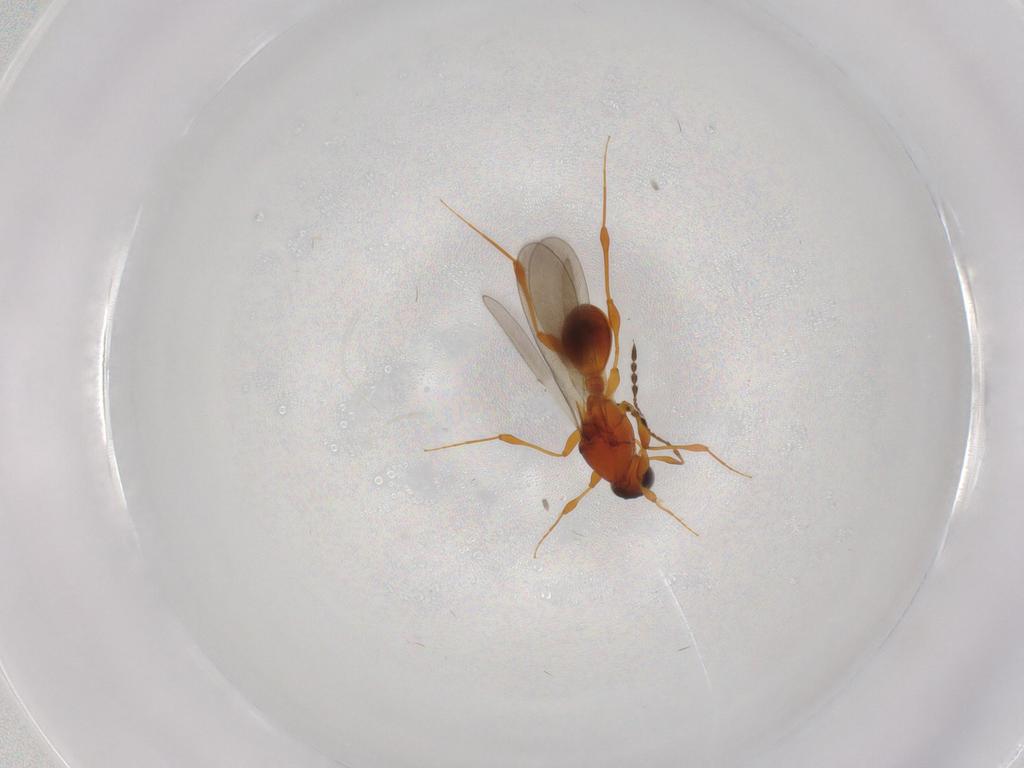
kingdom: Animalia
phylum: Arthropoda
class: Insecta
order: Hymenoptera
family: Platygastridae
